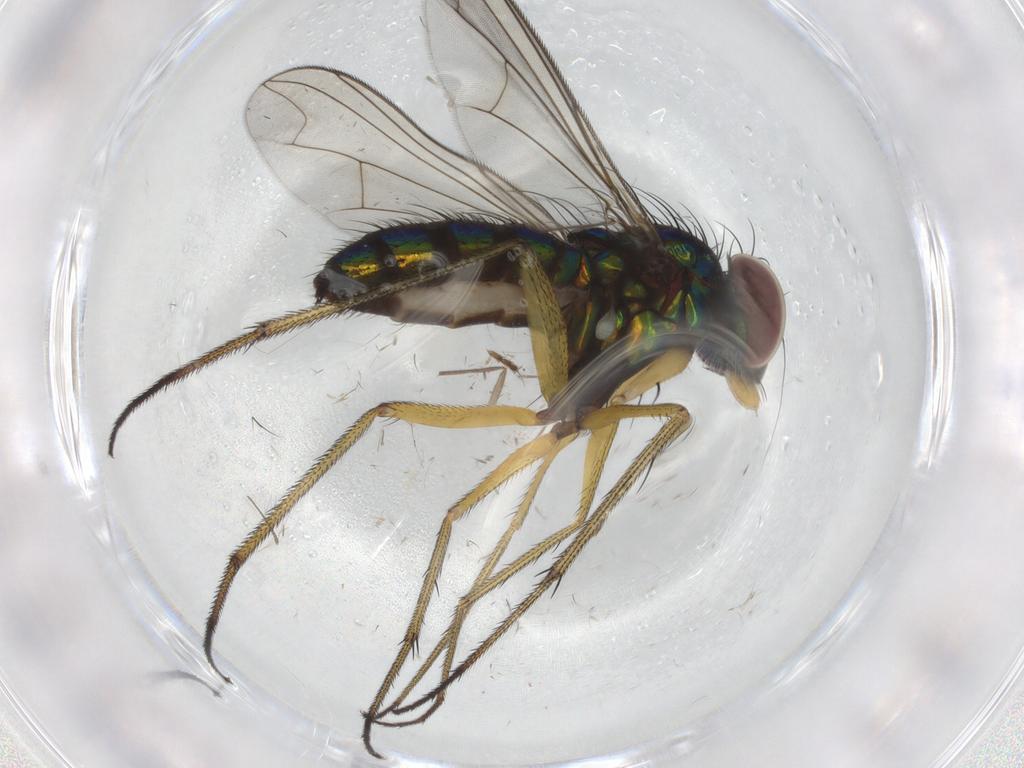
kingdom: Animalia
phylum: Arthropoda
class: Insecta
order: Diptera
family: Dolichopodidae
